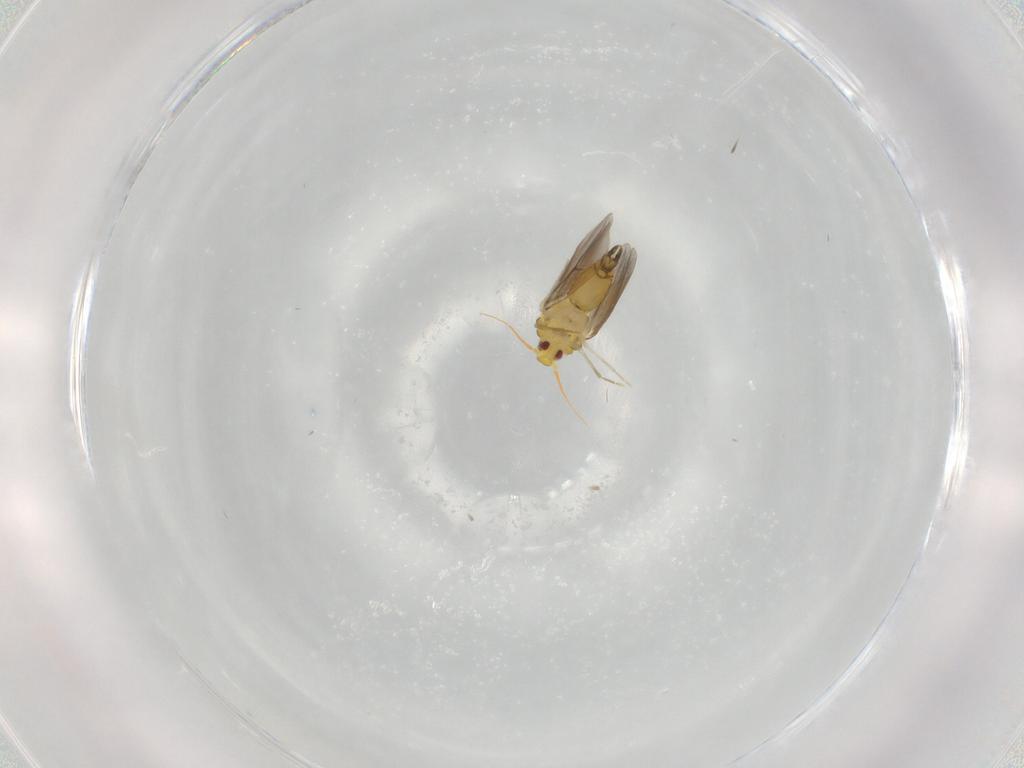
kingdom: Animalia
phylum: Arthropoda
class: Insecta
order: Hemiptera
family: Aleyrodidae
